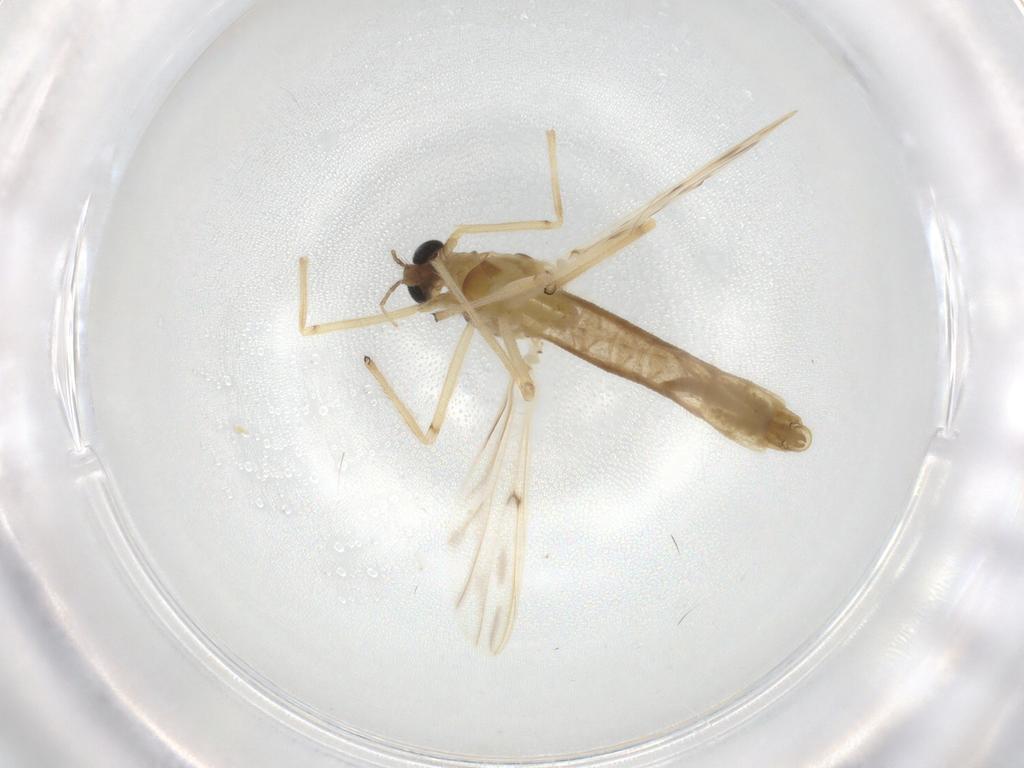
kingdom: Animalia
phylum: Arthropoda
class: Insecta
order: Diptera
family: Chironomidae
